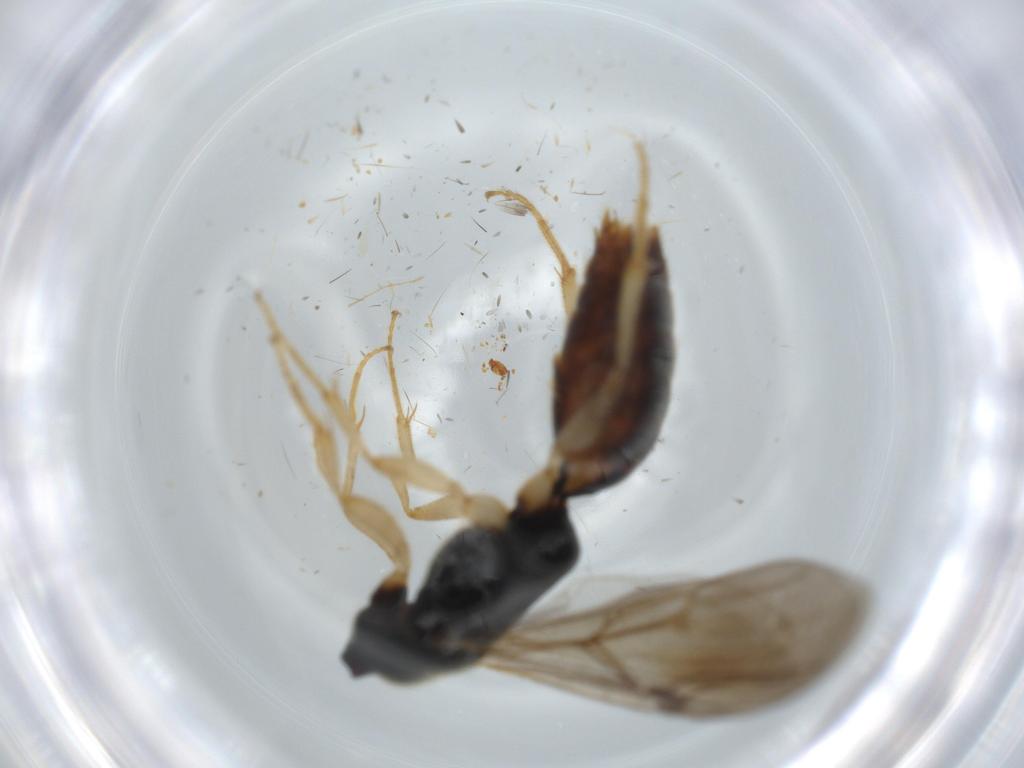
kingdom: Animalia
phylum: Arthropoda
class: Insecta
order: Hymenoptera
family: Bethylidae
